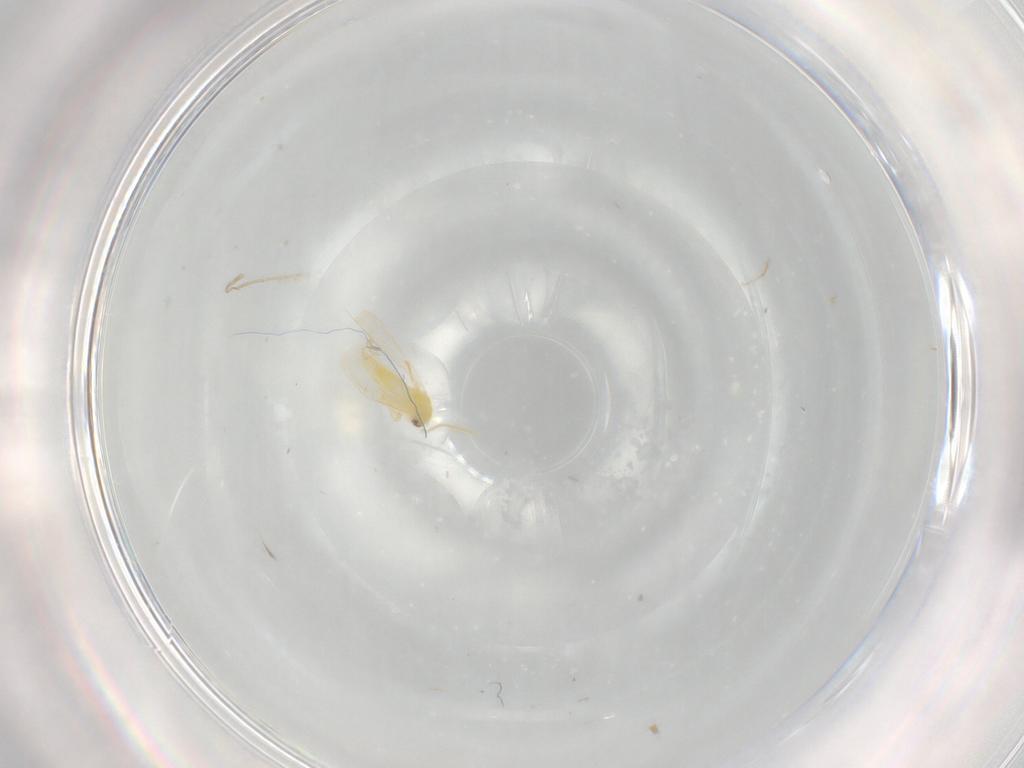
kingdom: Animalia
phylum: Arthropoda
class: Insecta
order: Hemiptera
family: Aleyrodidae
